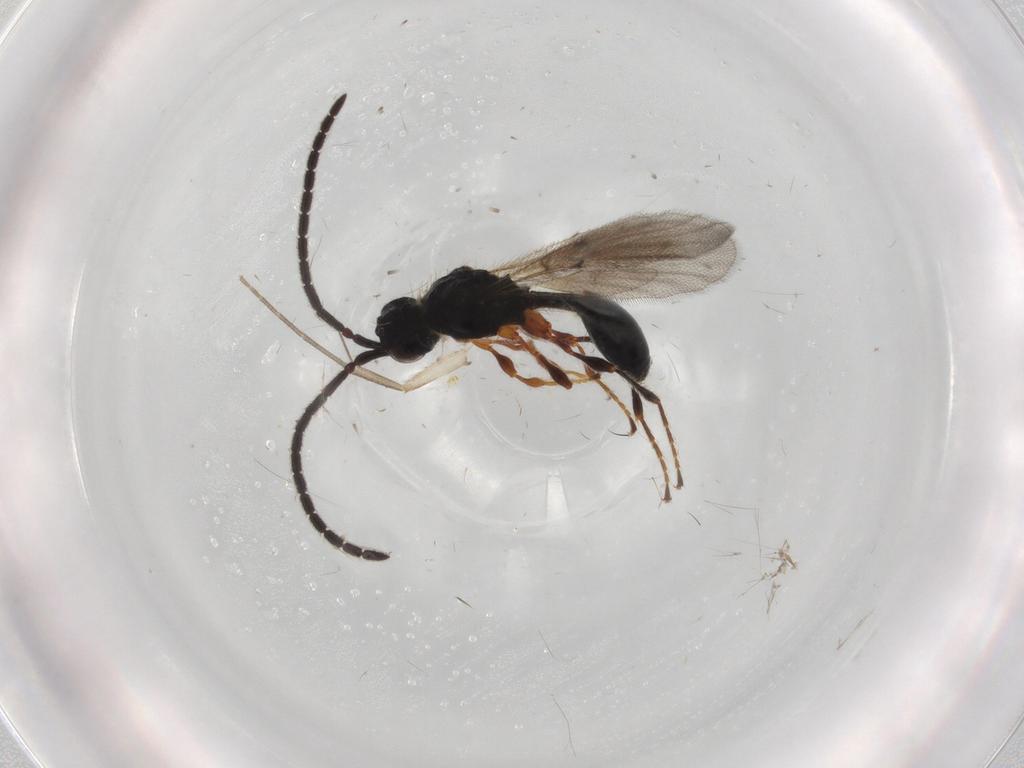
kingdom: Animalia
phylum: Arthropoda
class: Insecta
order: Hymenoptera
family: Diapriidae
